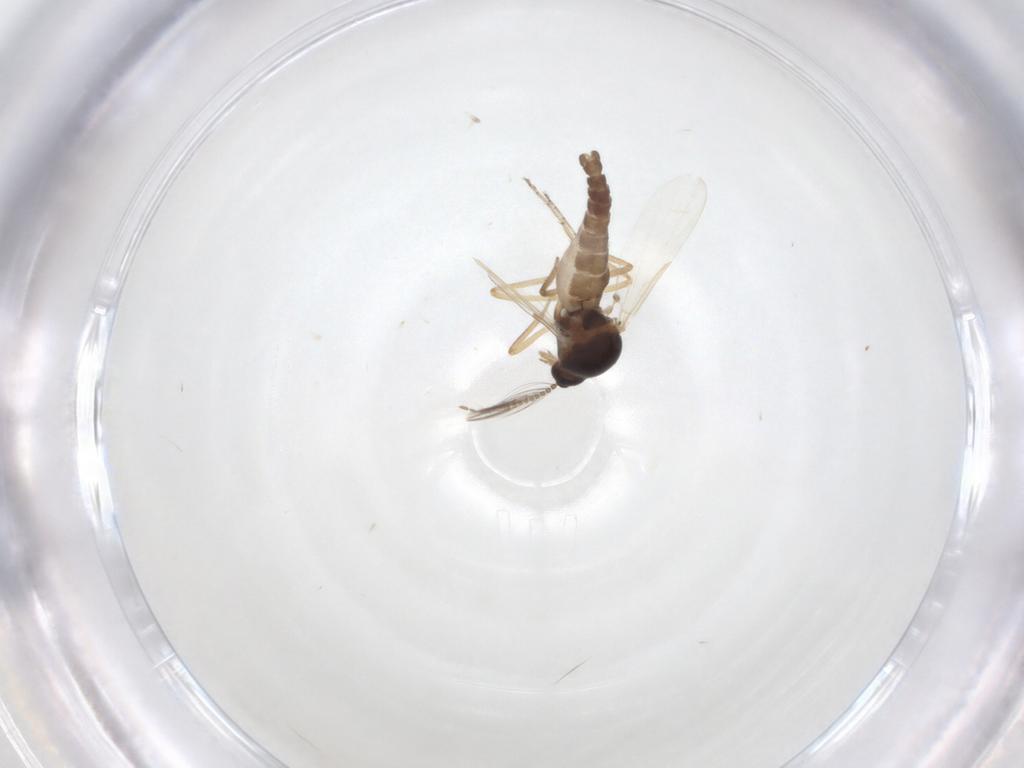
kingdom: Animalia
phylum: Arthropoda
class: Insecta
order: Diptera
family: Ceratopogonidae
